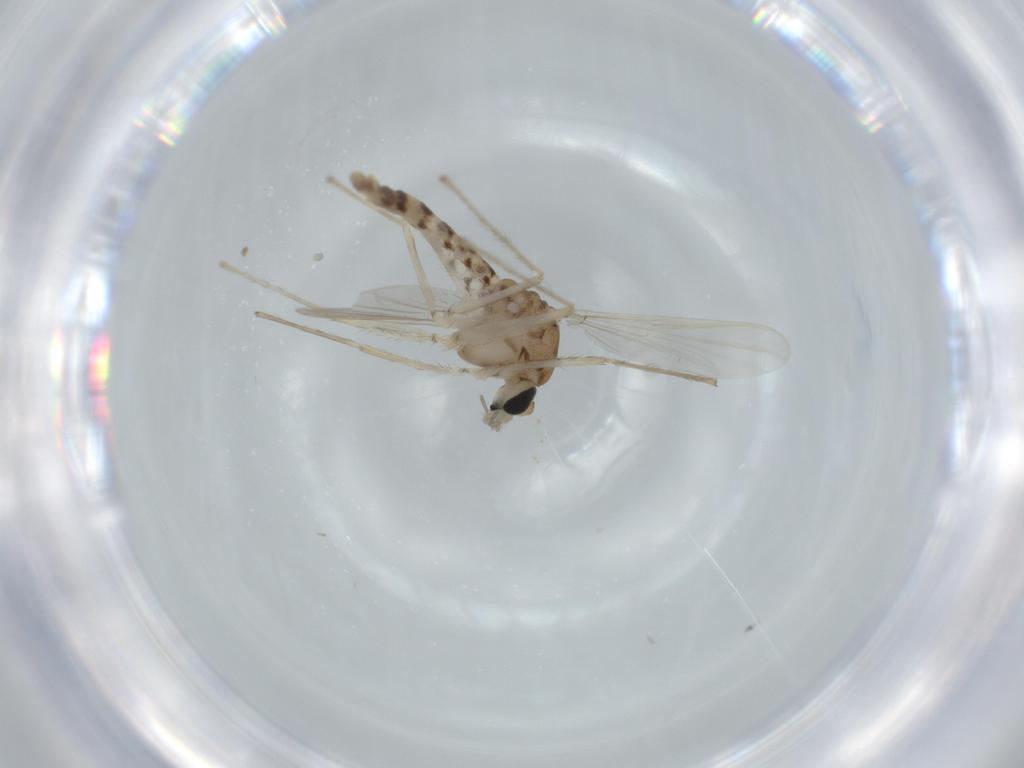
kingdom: Animalia
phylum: Arthropoda
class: Insecta
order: Diptera
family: Chironomidae
